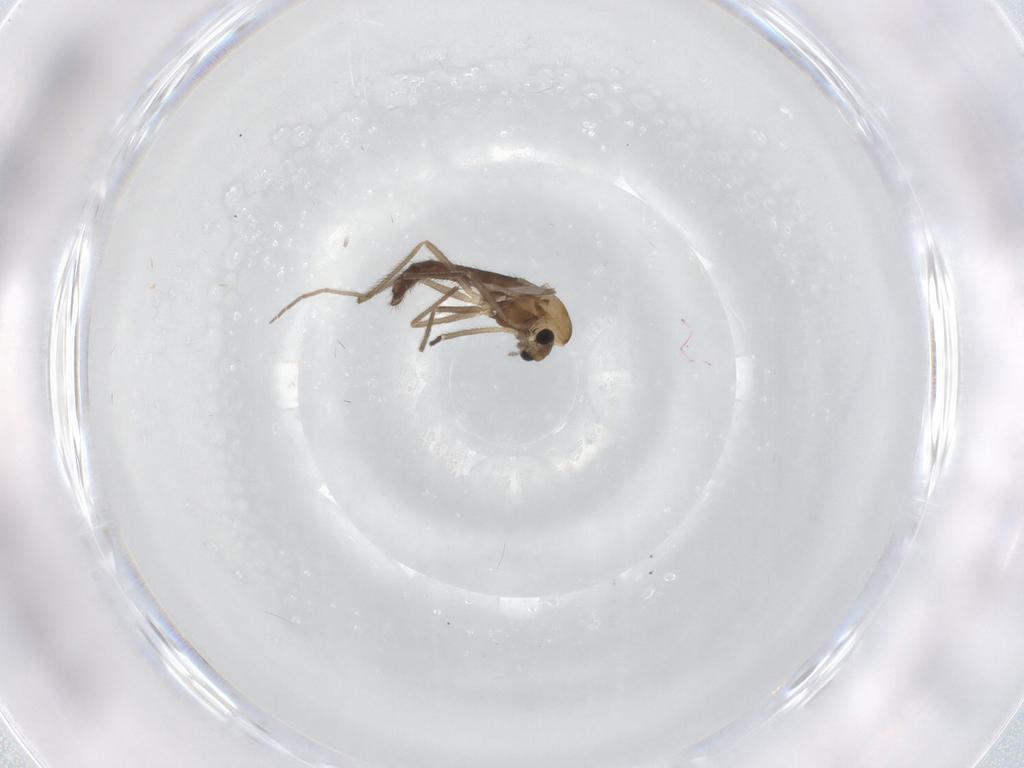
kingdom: Animalia
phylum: Arthropoda
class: Insecta
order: Diptera
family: Chironomidae
